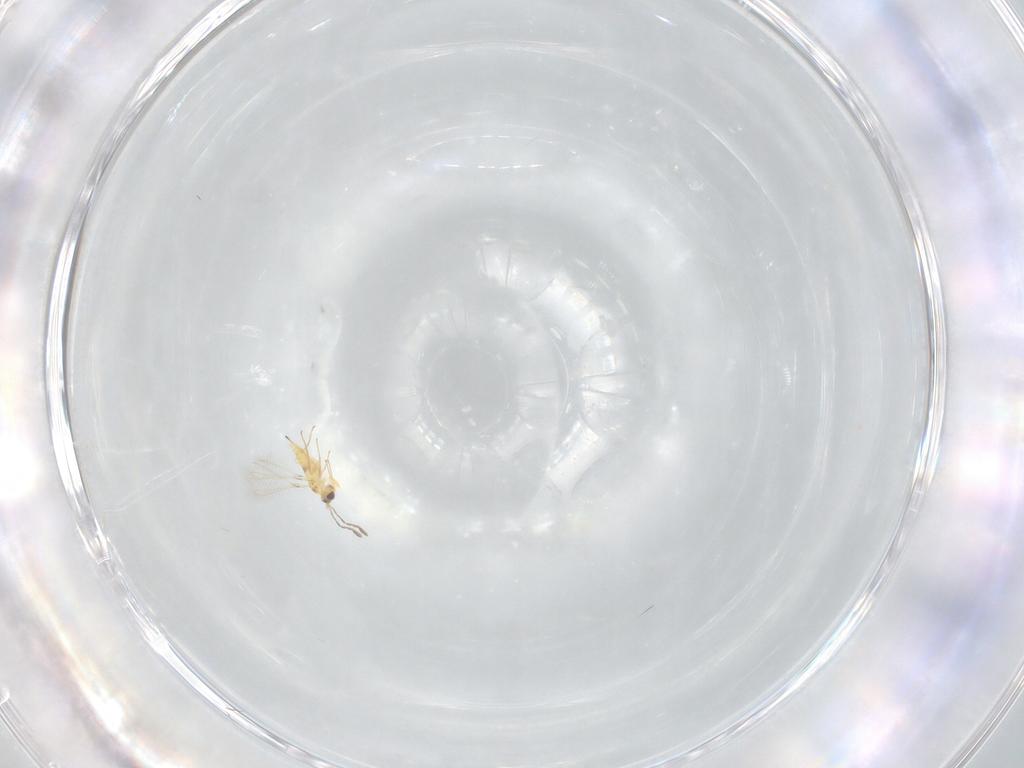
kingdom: Animalia
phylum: Arthropoda
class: Insecta
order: Hymenoptera
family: Mymaridae
